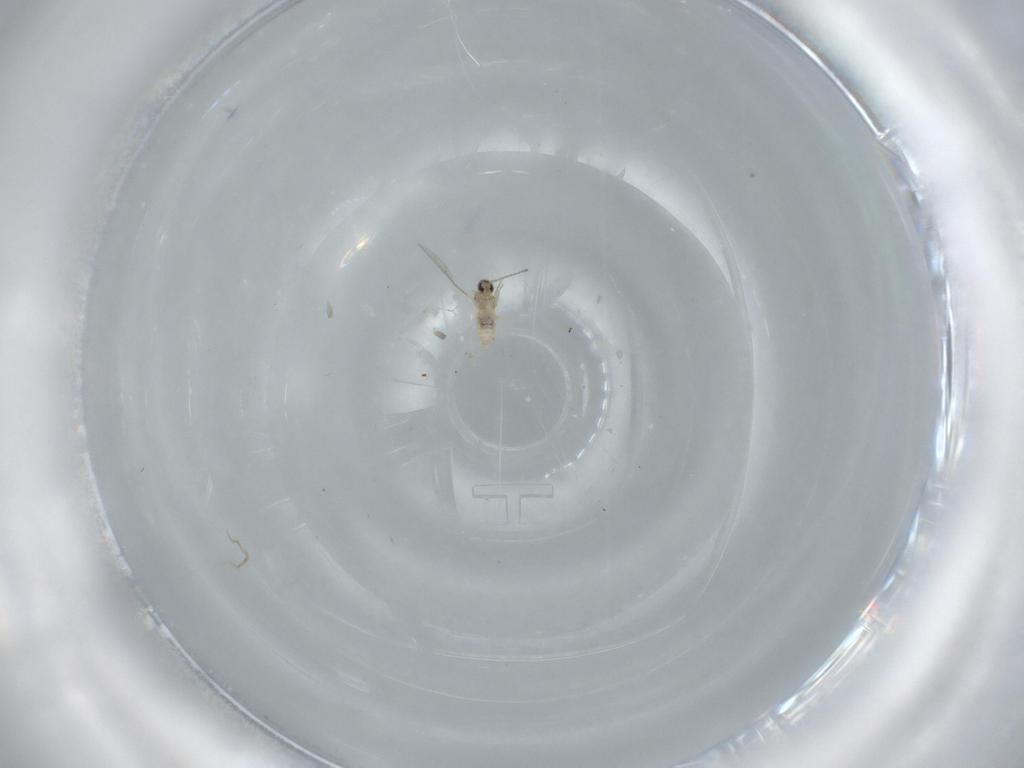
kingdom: Animalia
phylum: Arthropoda
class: Insecta
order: Diptera
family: Cecidomyiidae
